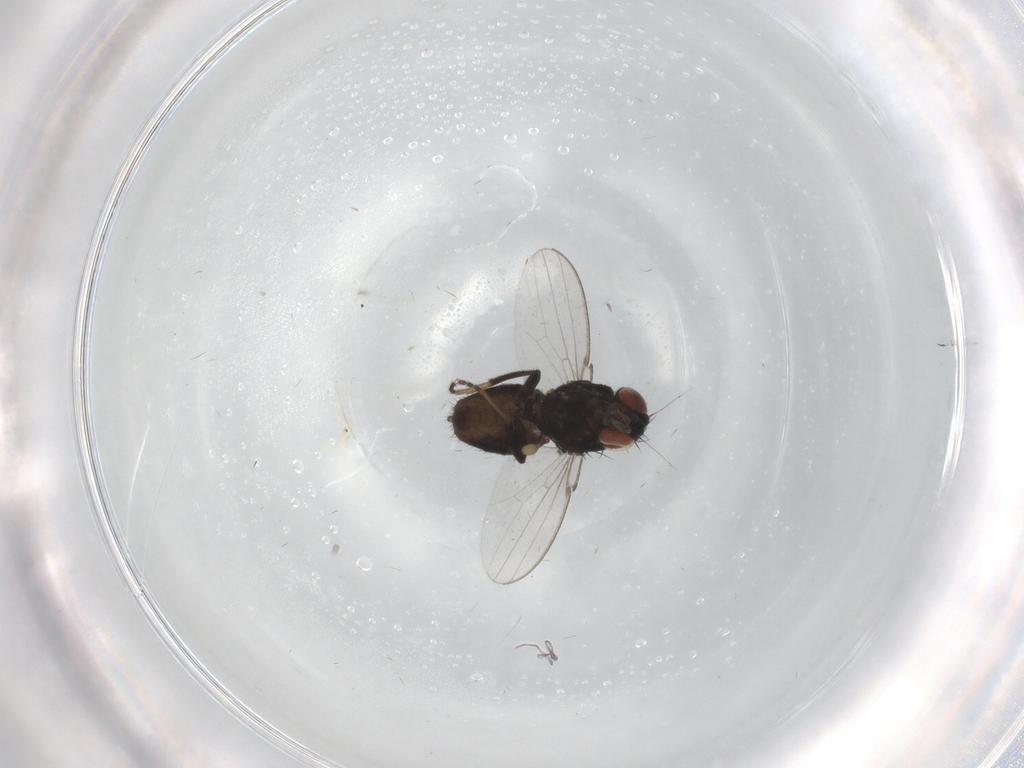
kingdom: Animalia
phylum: Arthropoda
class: Insecta
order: Diptera
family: Milichiidae
